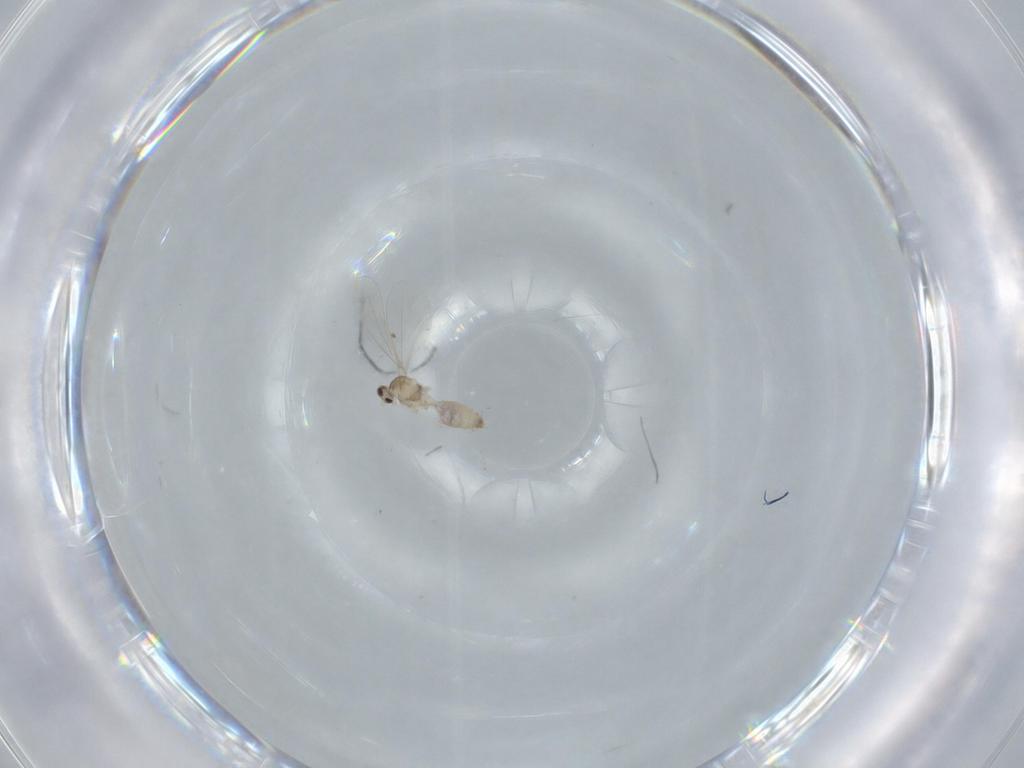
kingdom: Animalia
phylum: Arthropoda
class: Insecta
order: Diptera
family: Cecidomyiidae
